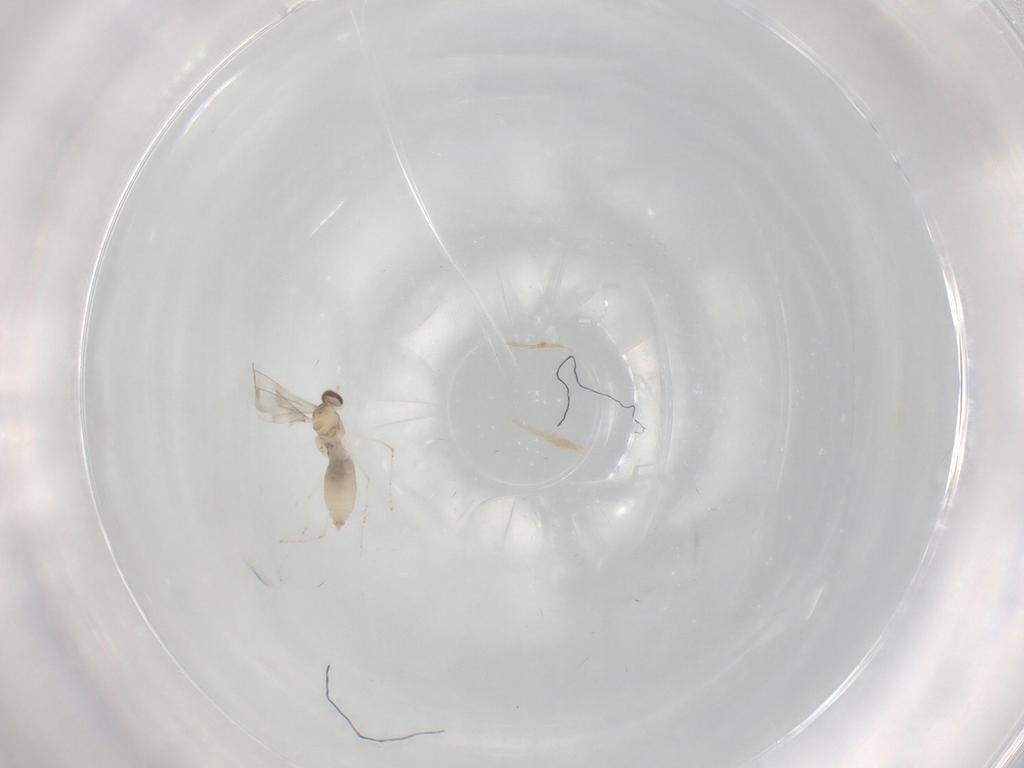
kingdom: Animalia
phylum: Arthropoda
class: Insecta
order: Diptera
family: Cecidomyiidae
